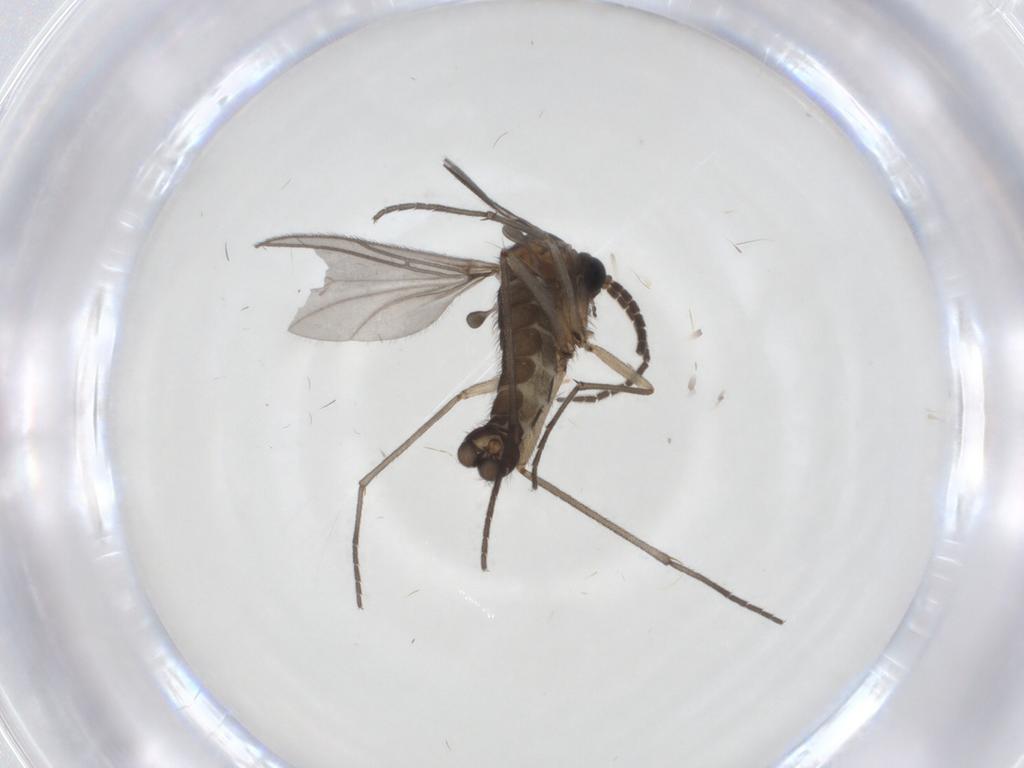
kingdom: Animalia
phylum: Arthropoda
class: Insecta
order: Diptera
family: Sciaridae
